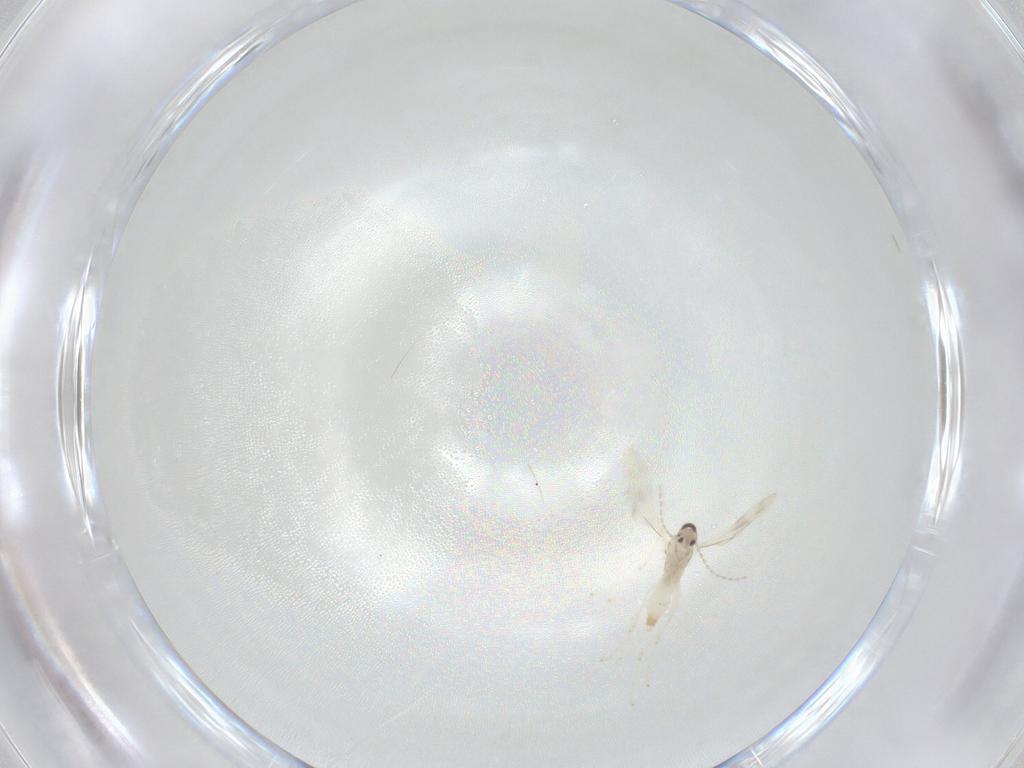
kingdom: Animalia
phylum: Arthropoda
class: Insecta
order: Diptera
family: Cecidomyiidae
